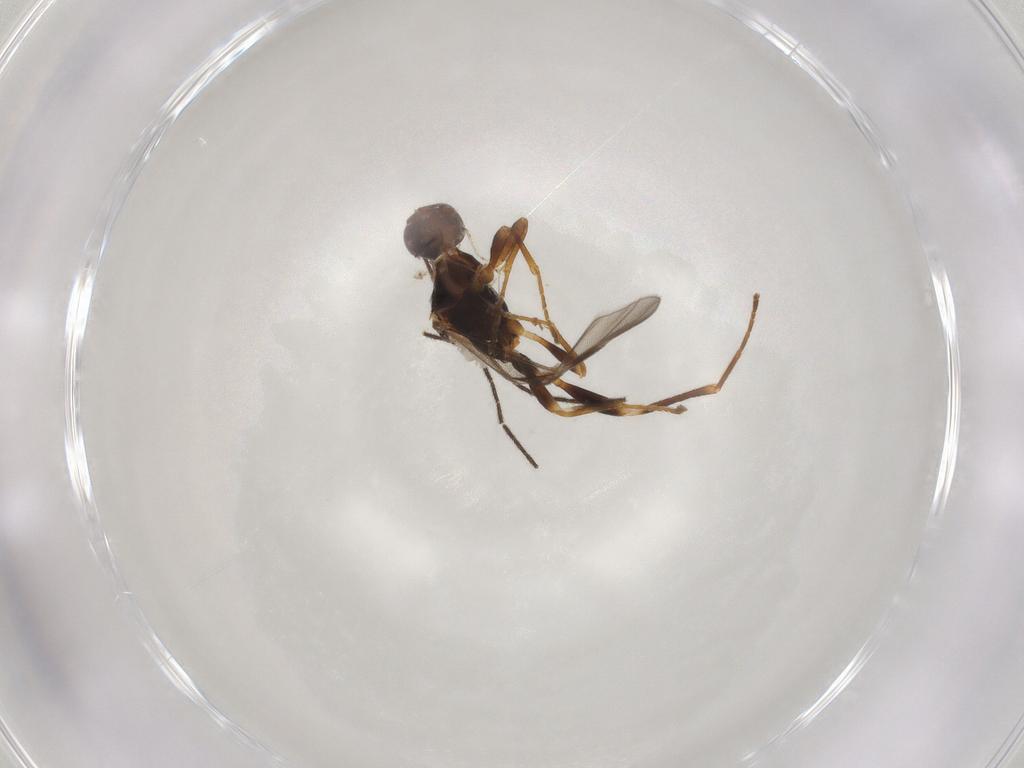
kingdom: Animalia
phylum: Arthropoda
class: Insecta
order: Hymenoptera
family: Braconidae
